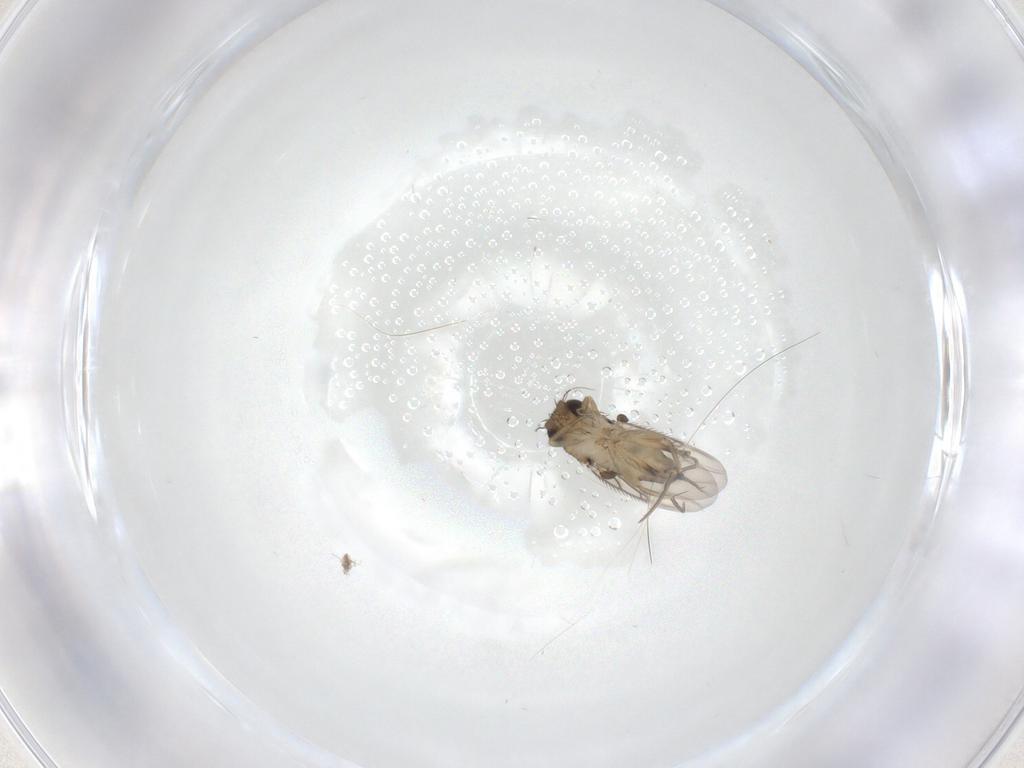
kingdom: Animalia
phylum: Arthropoda
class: Insecta
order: Diptera
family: Phoridae
